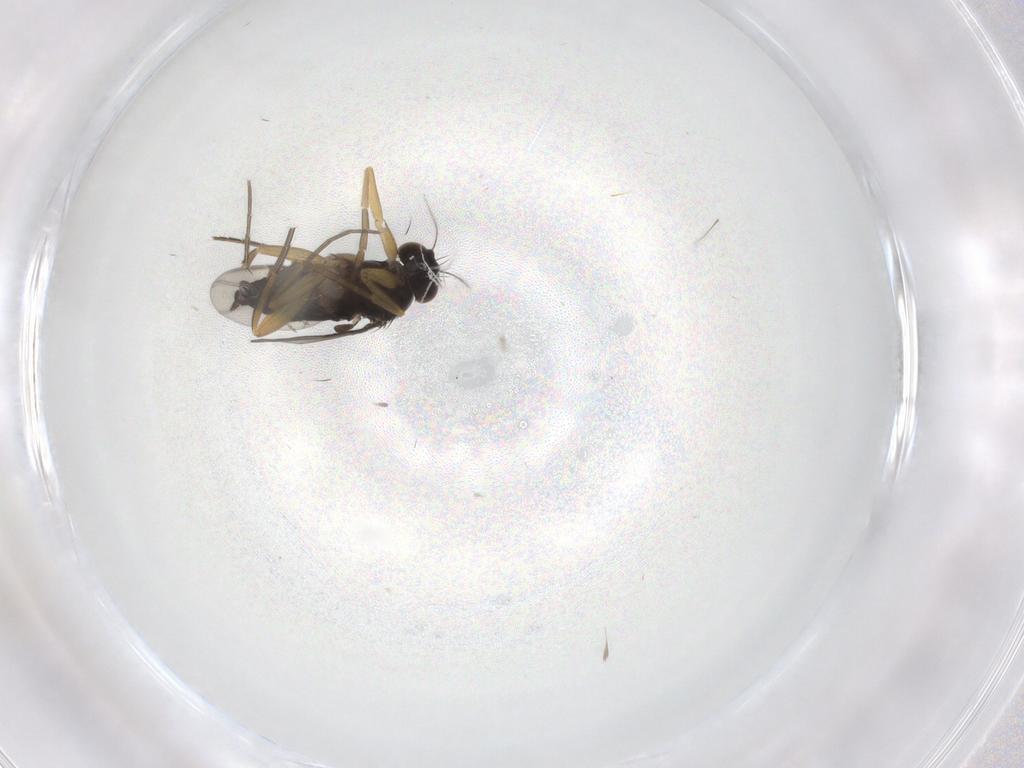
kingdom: Animalia
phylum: Arthropoda
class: Insecta
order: Diptera
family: Cecidomyiidae
